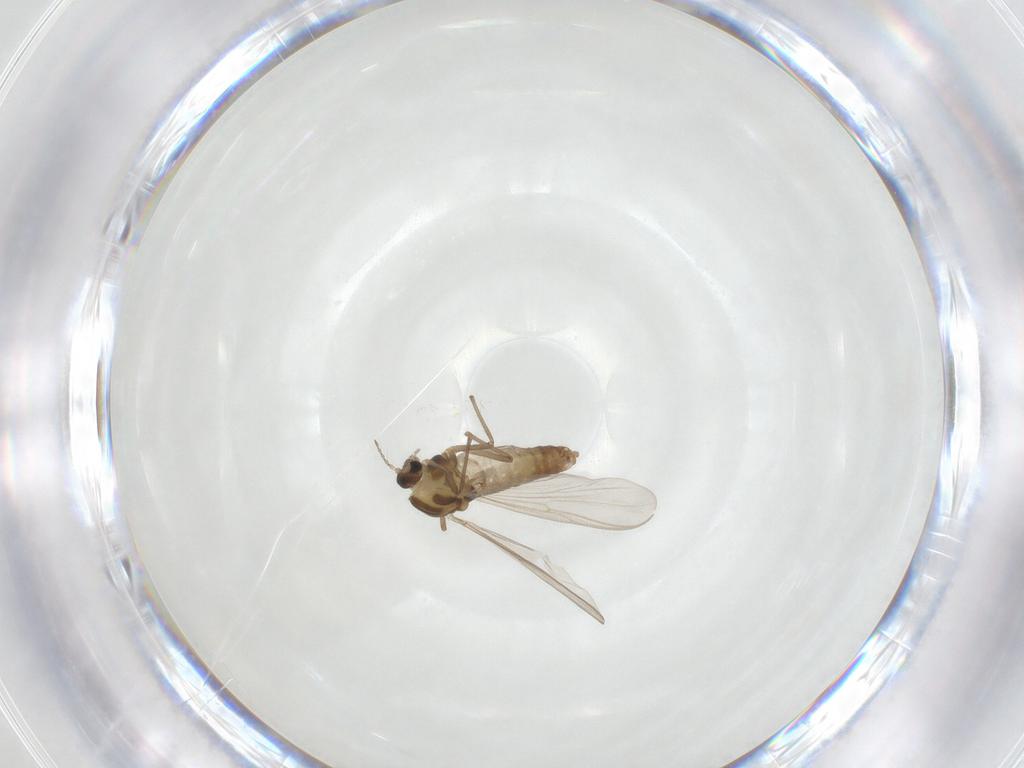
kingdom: Animalia
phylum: Arthropoda
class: Insecta
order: Diptera
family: Chironomidae
